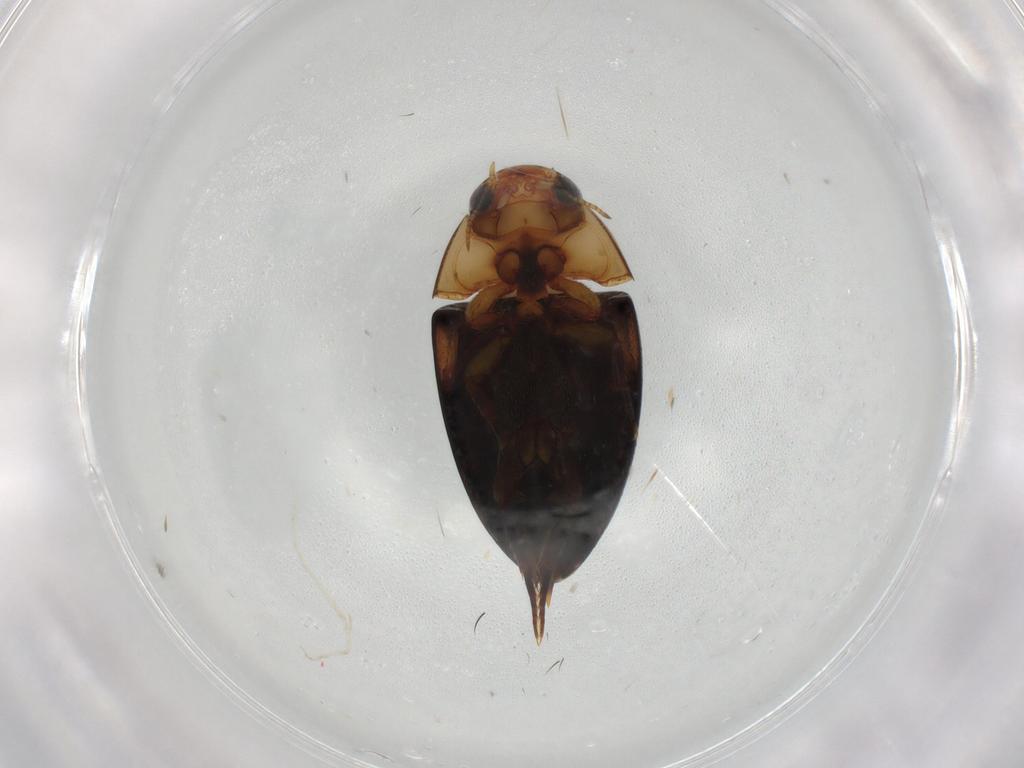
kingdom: Animalia
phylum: Arthropoda
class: Insecta
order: Coleoptera
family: Noteridae
